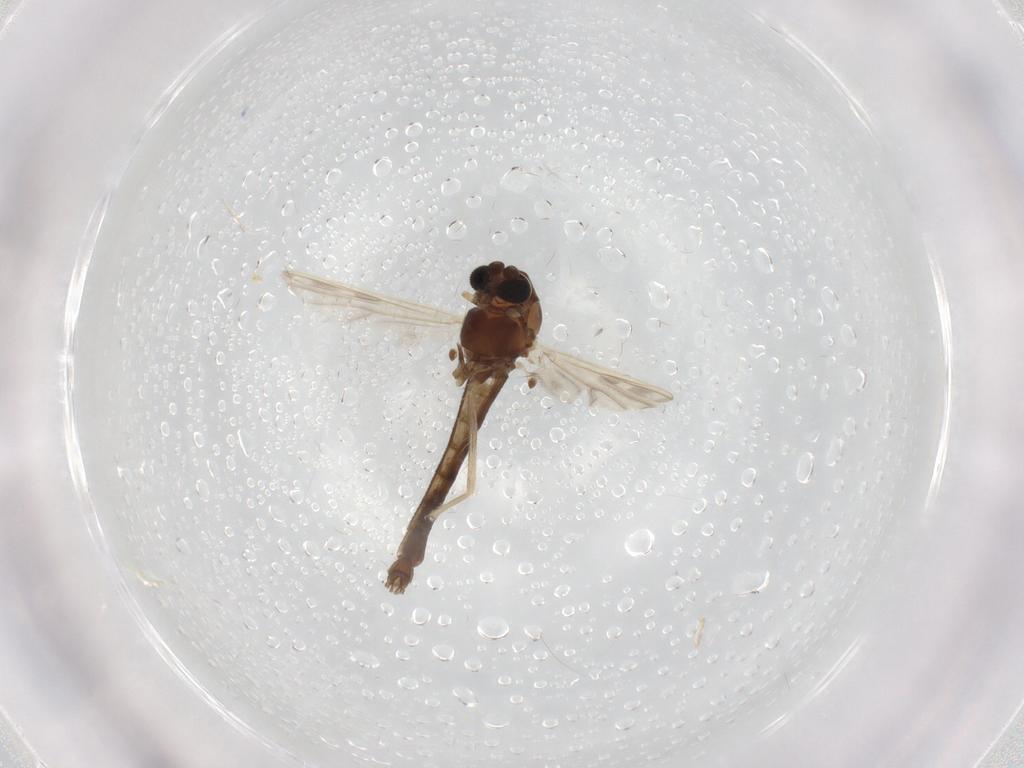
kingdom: Animalia
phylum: Arthropoda
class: Insecta
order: Diptera
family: Chironomidae
